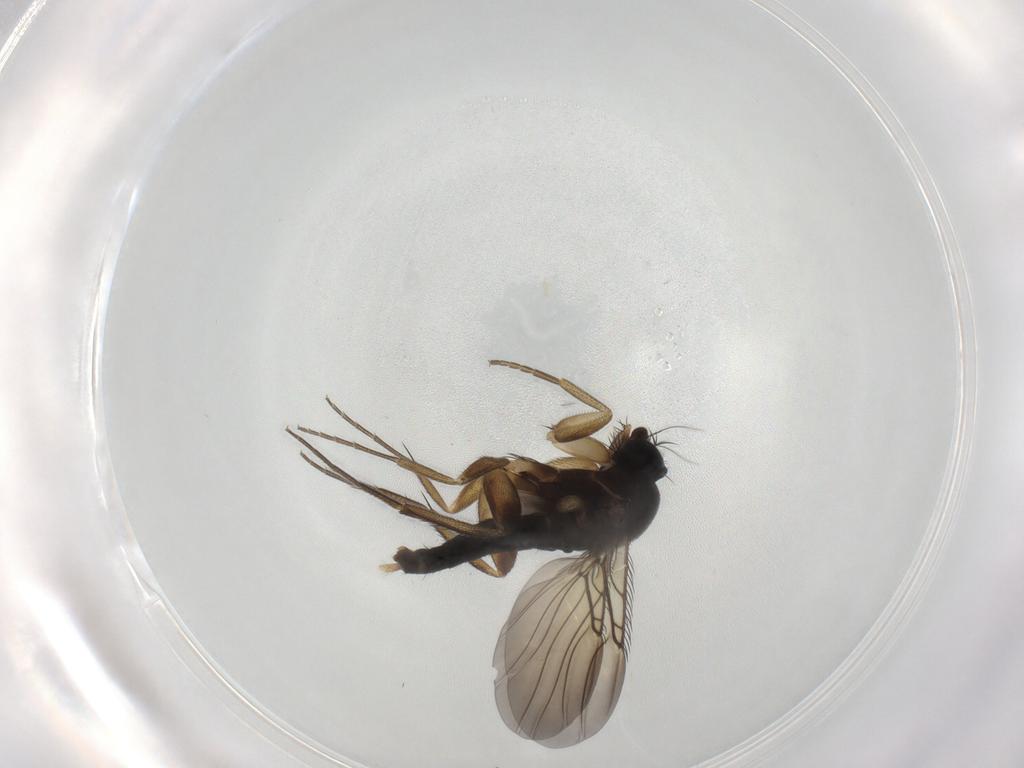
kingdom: Animalia
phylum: Arthropoda
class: Insecta
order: Diptera
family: Phoridae
